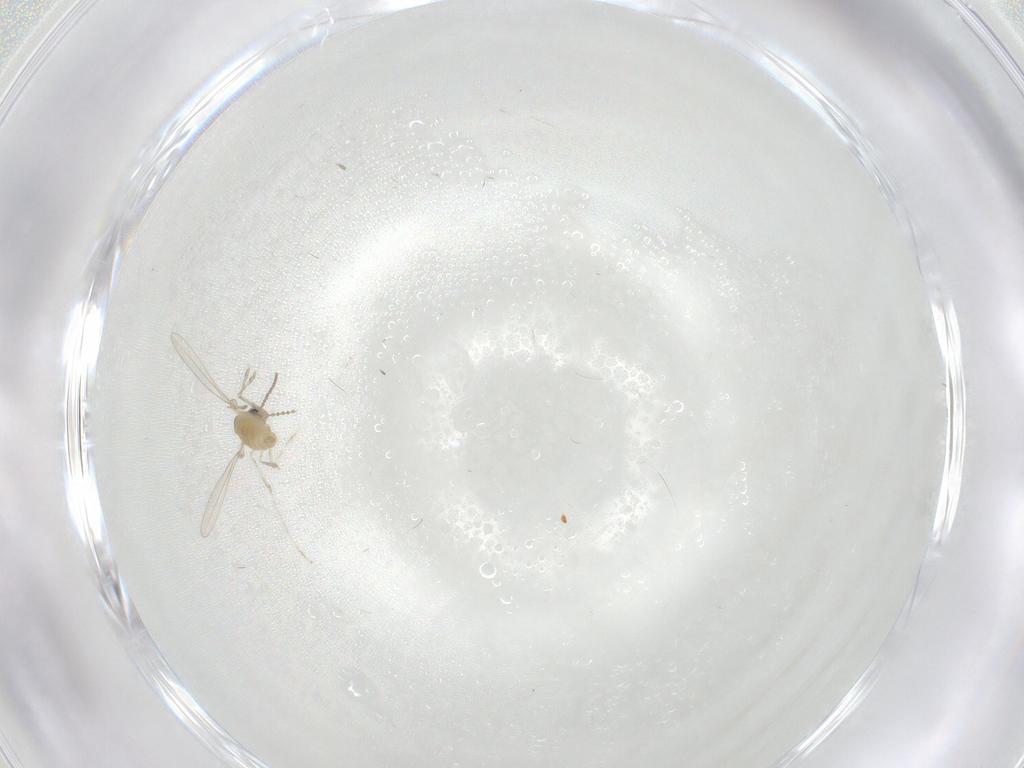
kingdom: Animalia
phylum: Arthropoda
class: Insecta
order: Diptera
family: Cecidomyiidae
